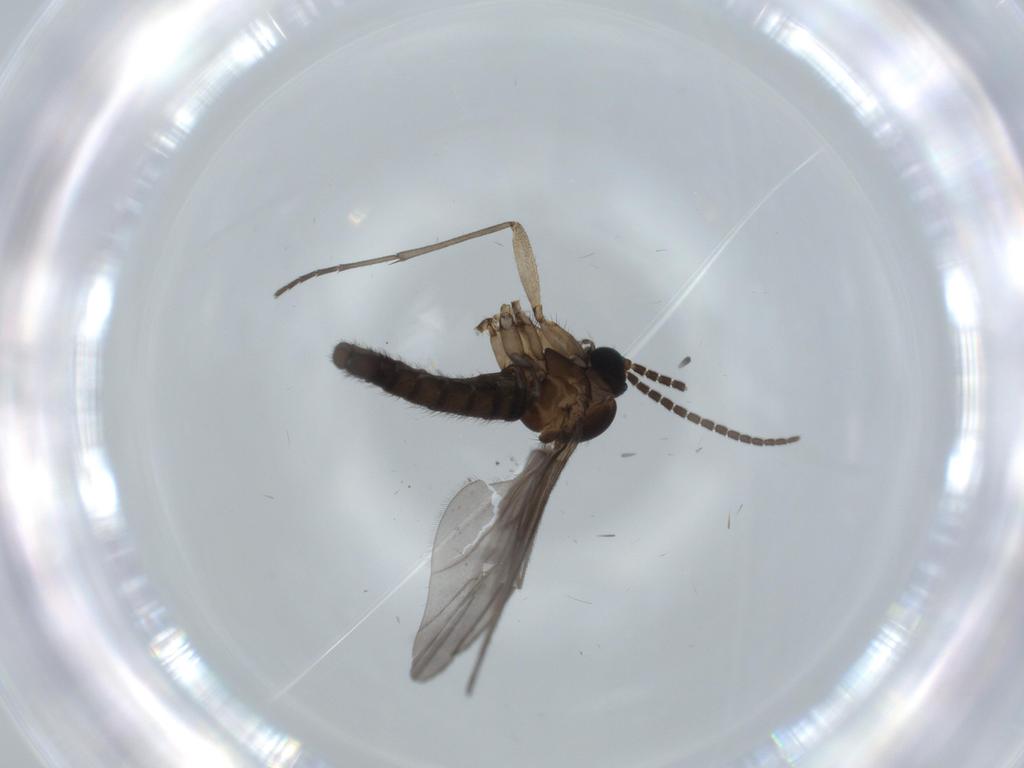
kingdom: Animalia
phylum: Arthropoda
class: Insecta
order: Diptera
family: Sciaridae
